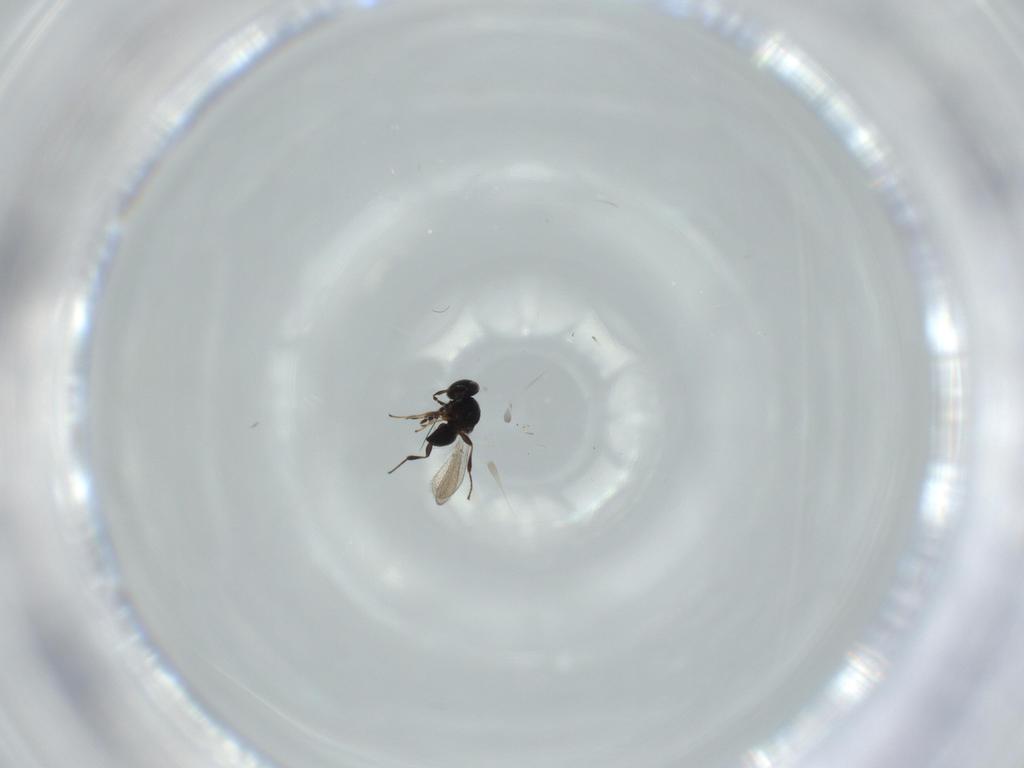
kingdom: Animalia
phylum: Arthropoda
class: Insecta
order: Hymenoptera
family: Platygastridae
